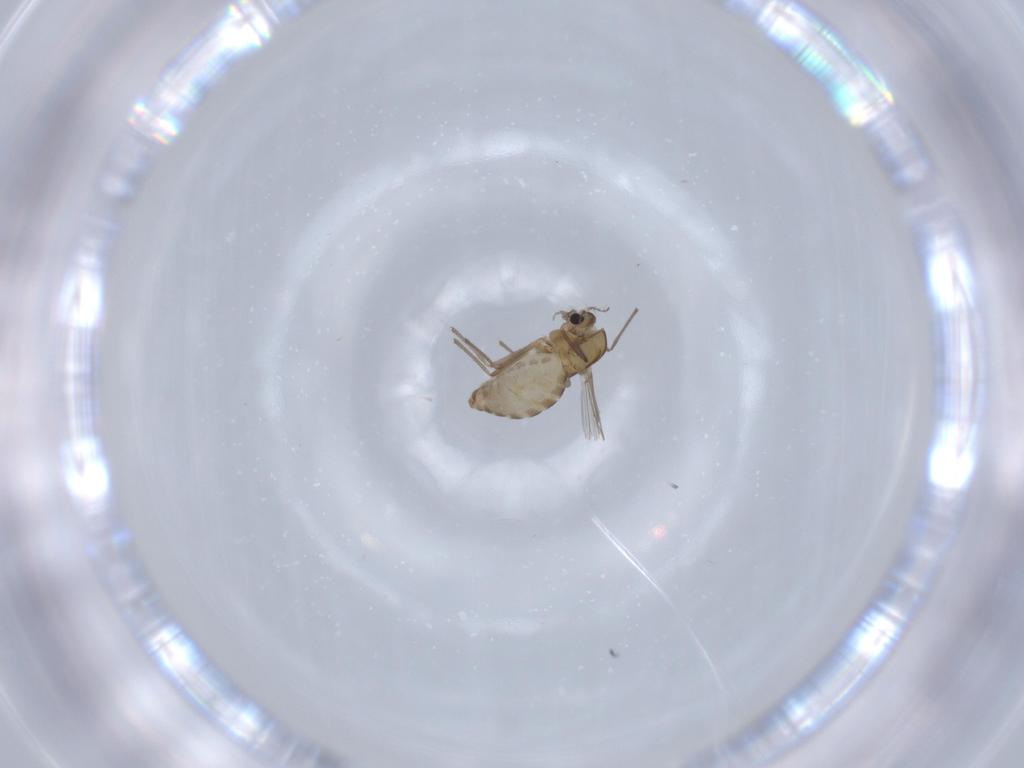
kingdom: Animalia
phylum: Arthropoda
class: Insecta
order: Diptera
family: Chironomidae
